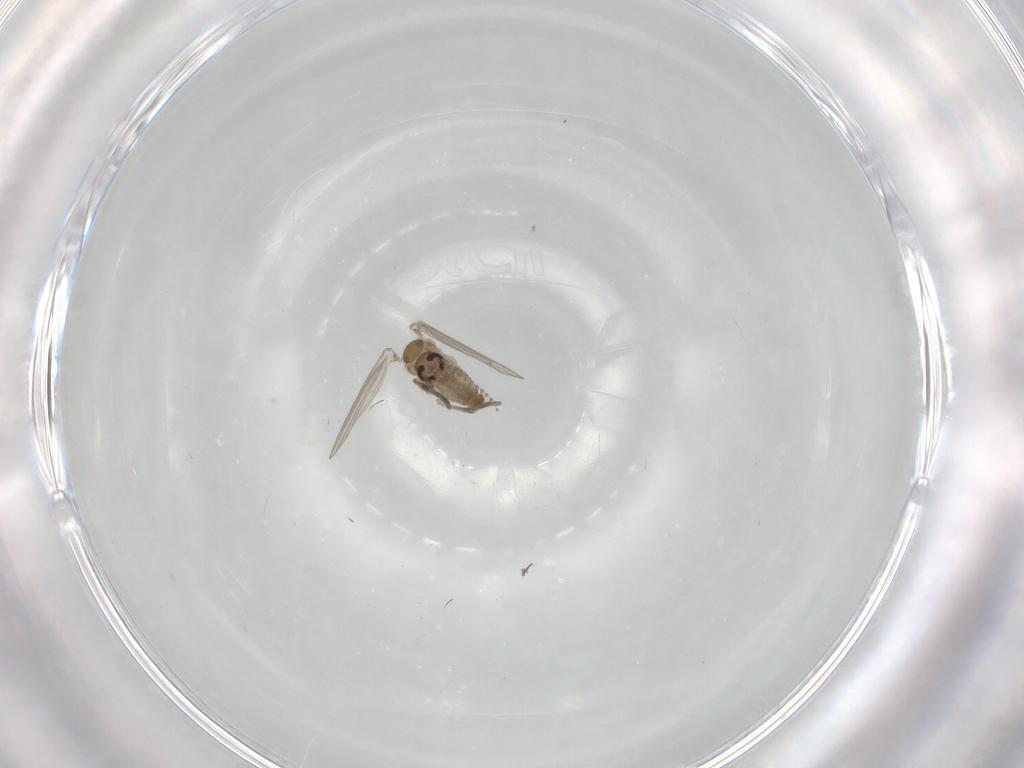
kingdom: Animalia
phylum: Arthropoda
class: Insecta
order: Diptera
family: Psychodidae
